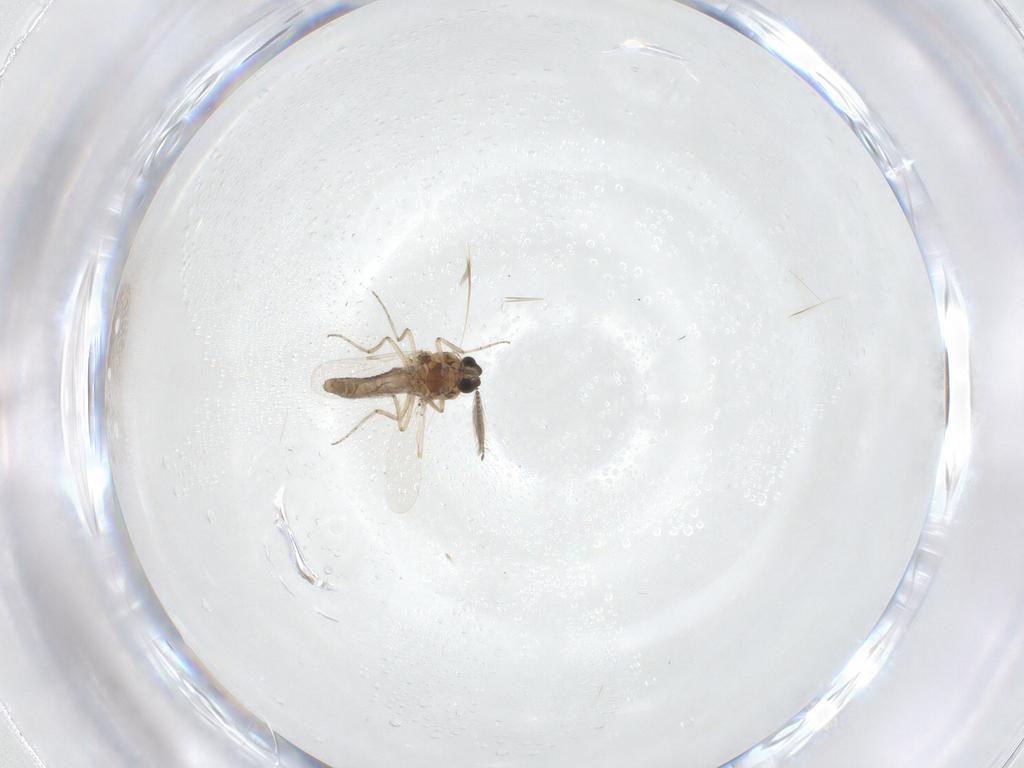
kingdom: Animalia
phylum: Arthropoda
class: Insecta
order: Diptera
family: Ceratopogonidae
